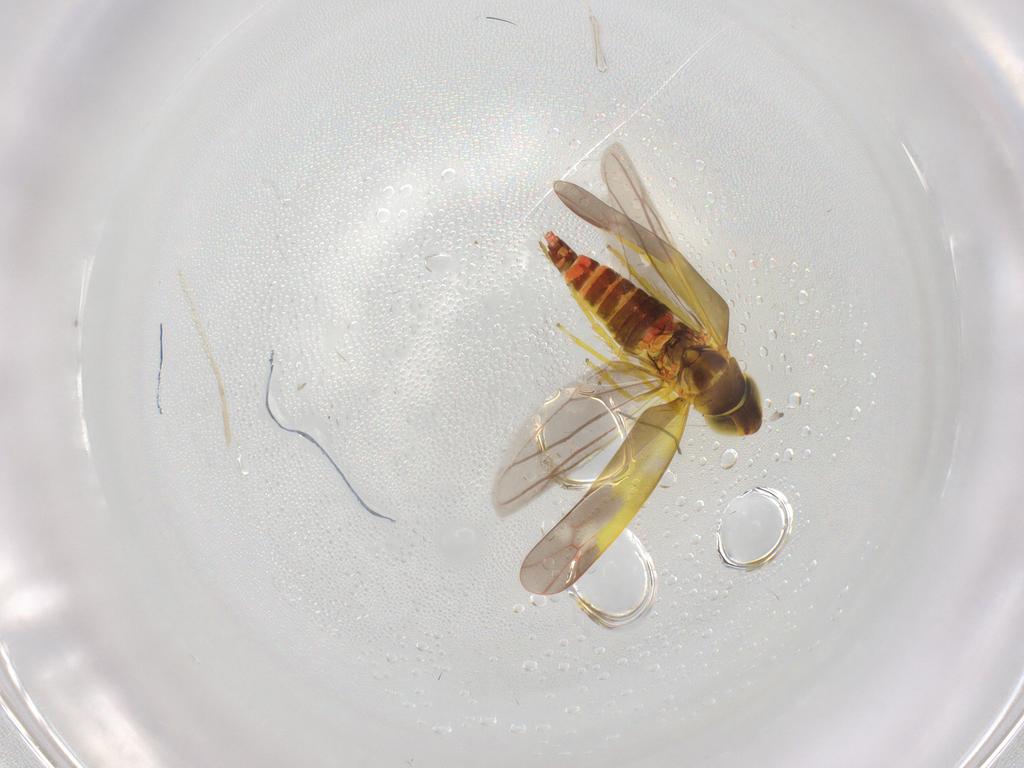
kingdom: Animalia
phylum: Arthropoda
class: Insecta
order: Hemiptera
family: Cicadellidae
